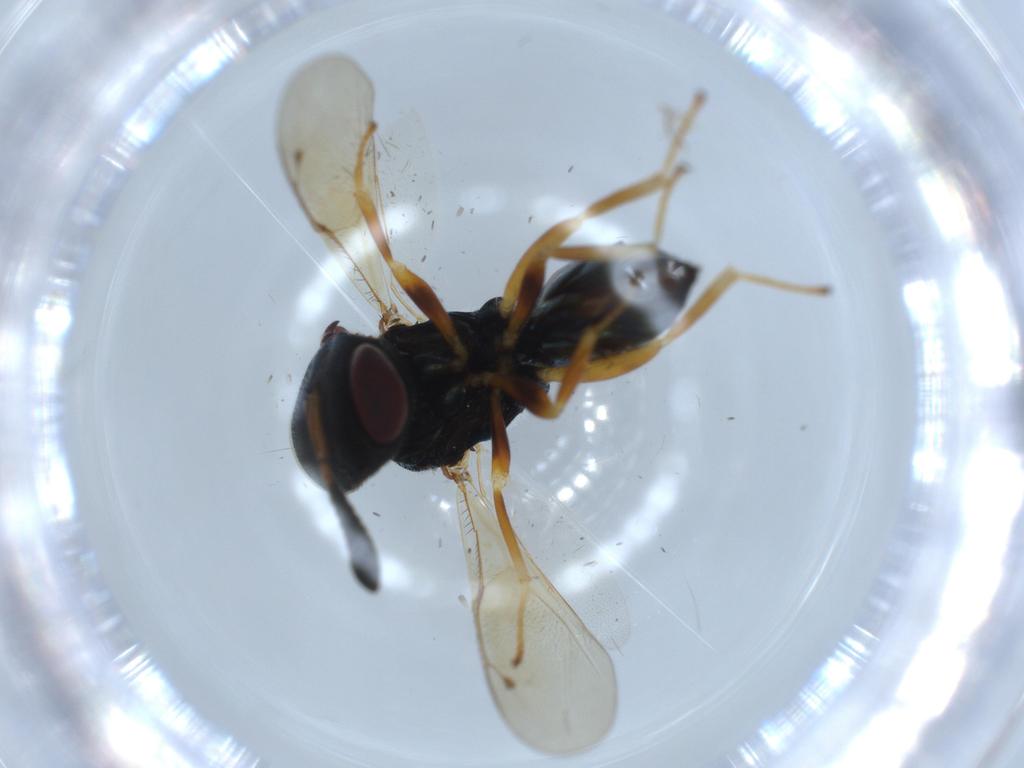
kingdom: Animalia
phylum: Arthropoda
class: Insecta
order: Hymenoptera
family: Agaonidae
